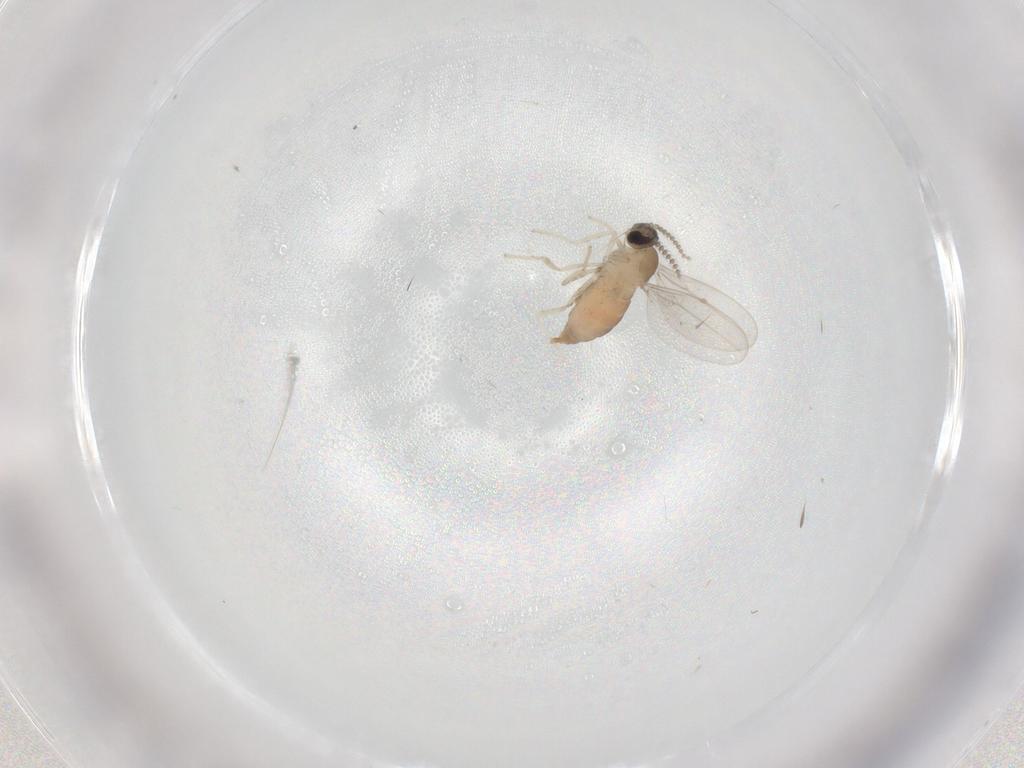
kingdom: Animalia
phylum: Arthropoda
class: Insecta
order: Diptera
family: Cecidomyiidae
